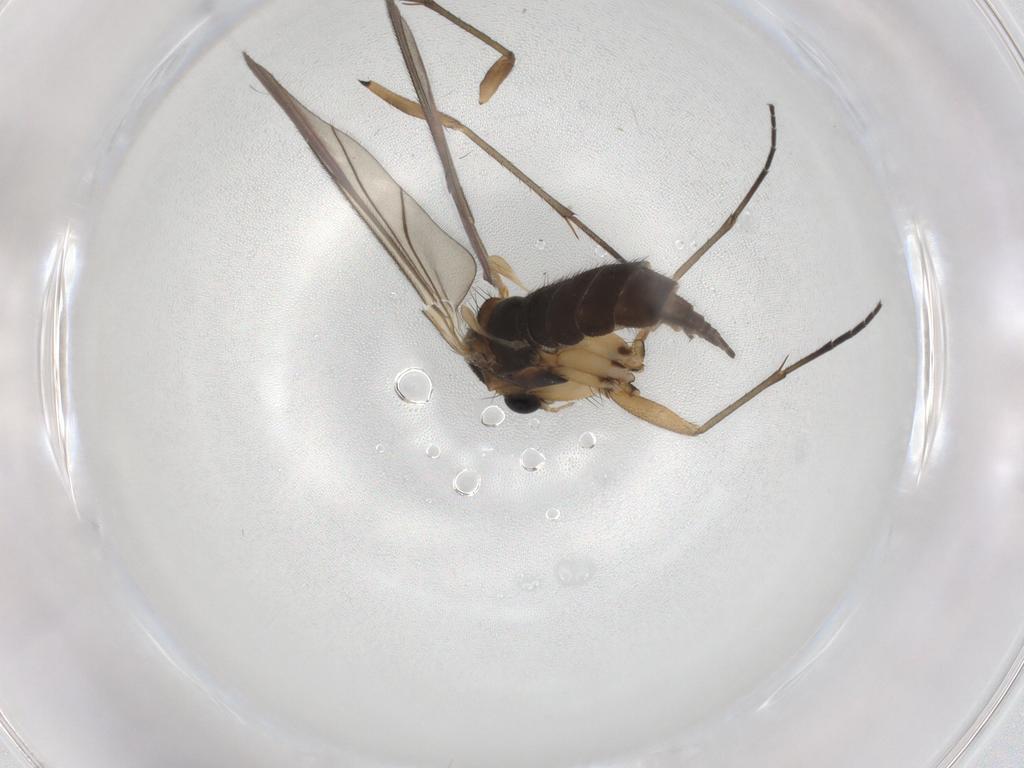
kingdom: Animalia
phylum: Arthropoda
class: Insecta
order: Diptera
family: Sciaridae
